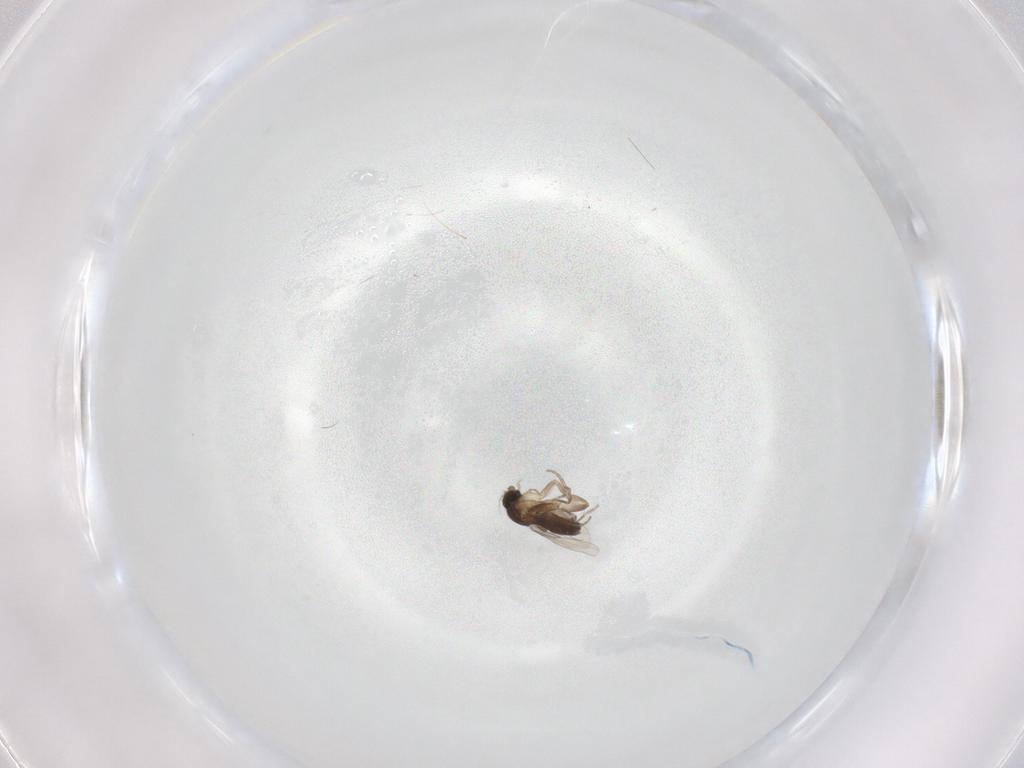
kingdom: Animalia
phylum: Arthropoda
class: Insecta
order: Diptera
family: Phoridae
